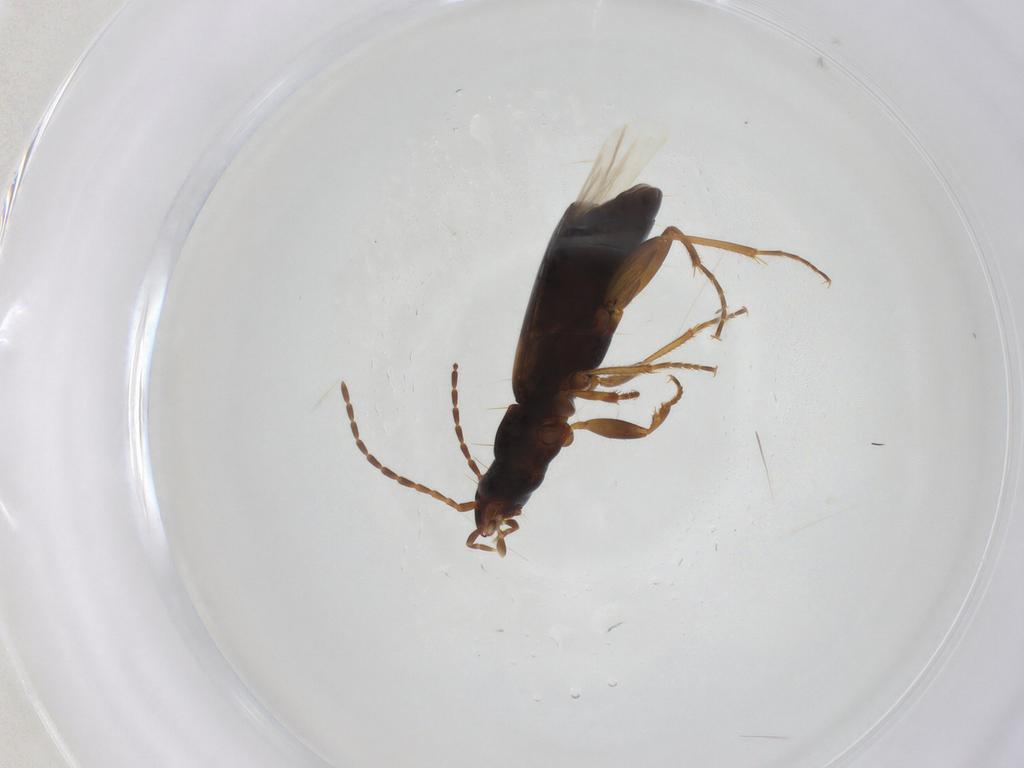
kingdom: Animalia
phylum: Arthropoda
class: Insecta
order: Coleoptera
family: Carabidae
